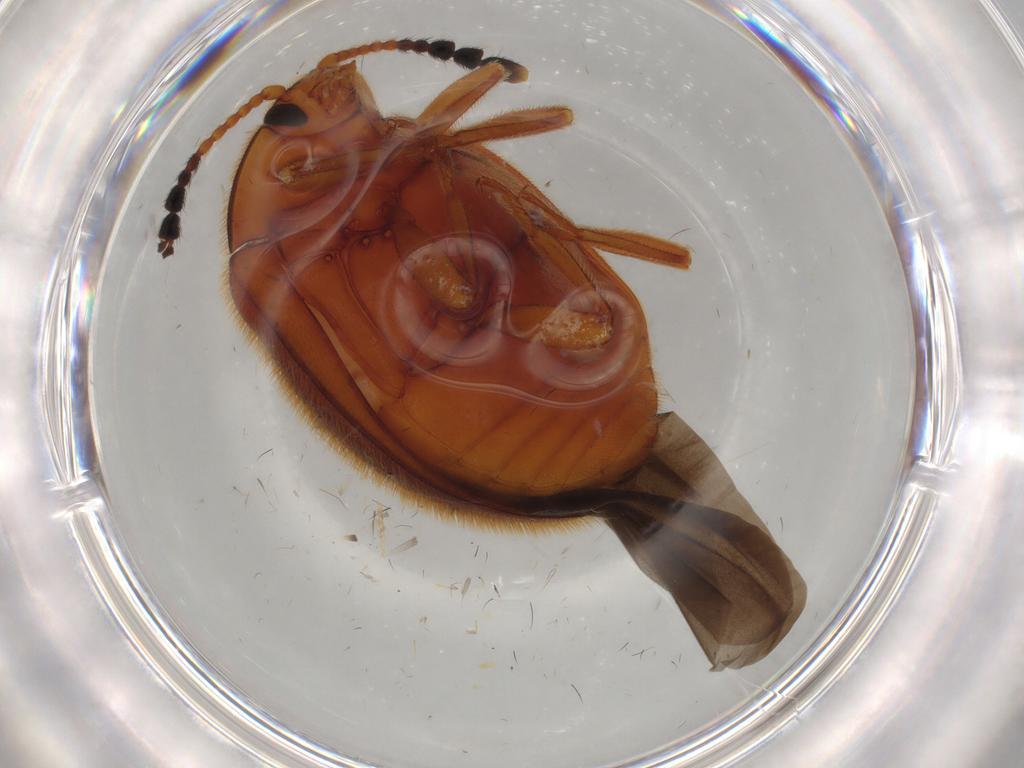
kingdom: Animalia
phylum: Arthropoda
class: Insecta
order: Coleoptera
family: Endomychidae
